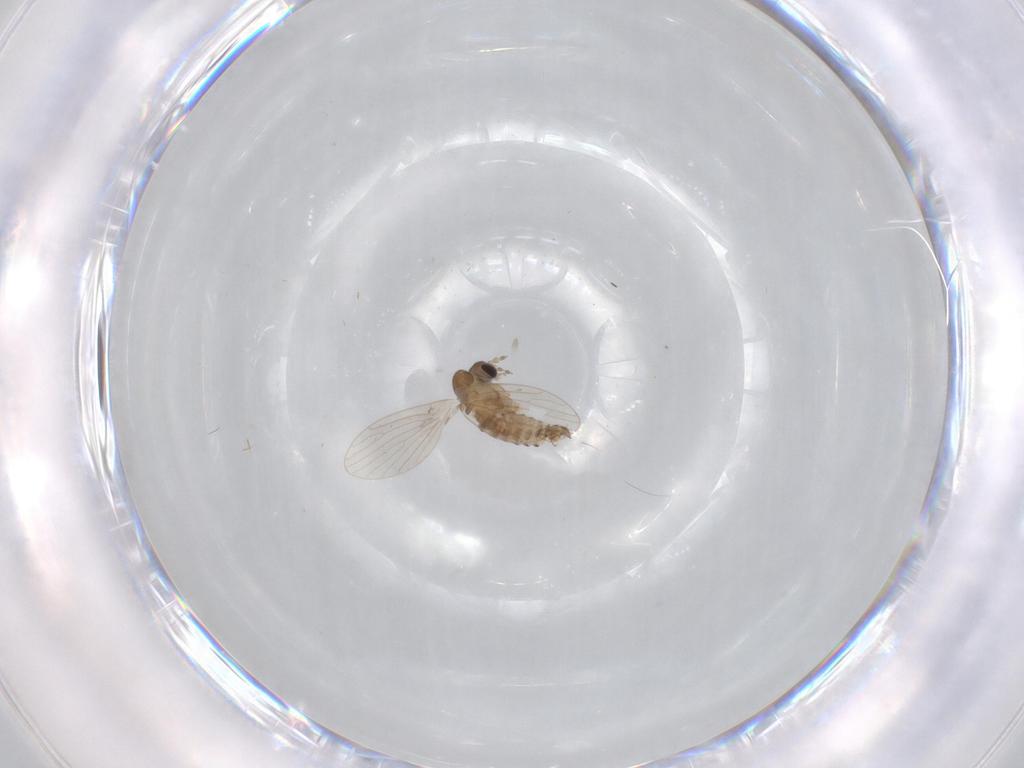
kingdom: Animalia
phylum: Arthropoda
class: Insecta
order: Diptera
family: Psychodidae
